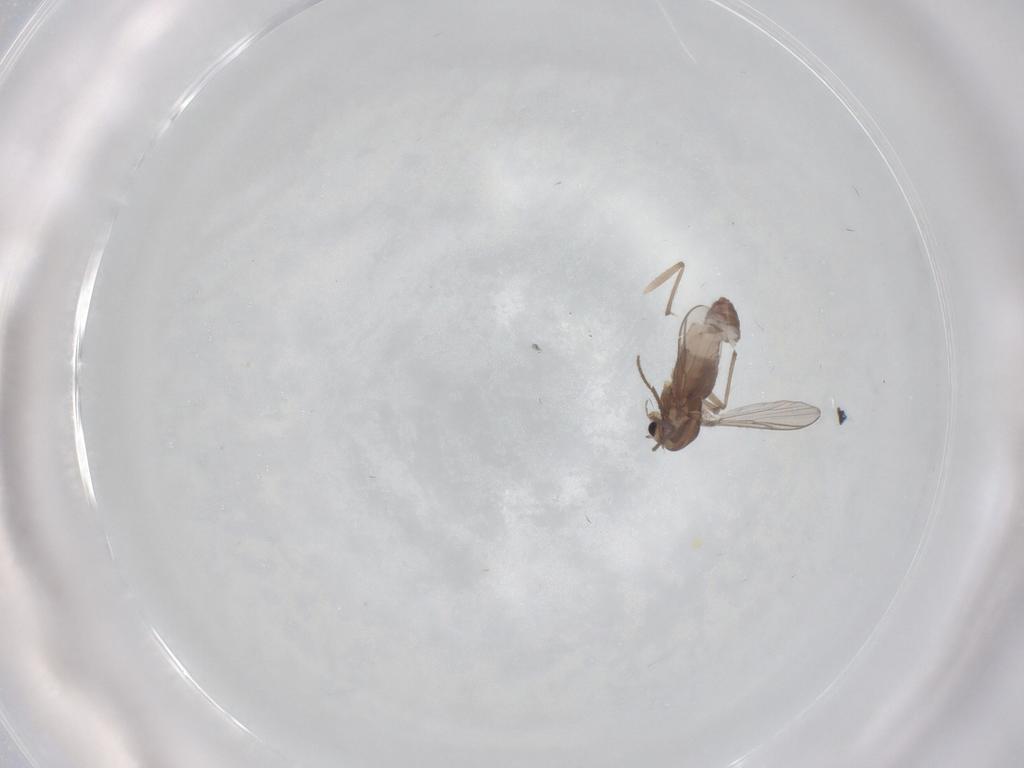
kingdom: Animalia
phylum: Arthropoda
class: Insecta
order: Diptera
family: Chironomidae
